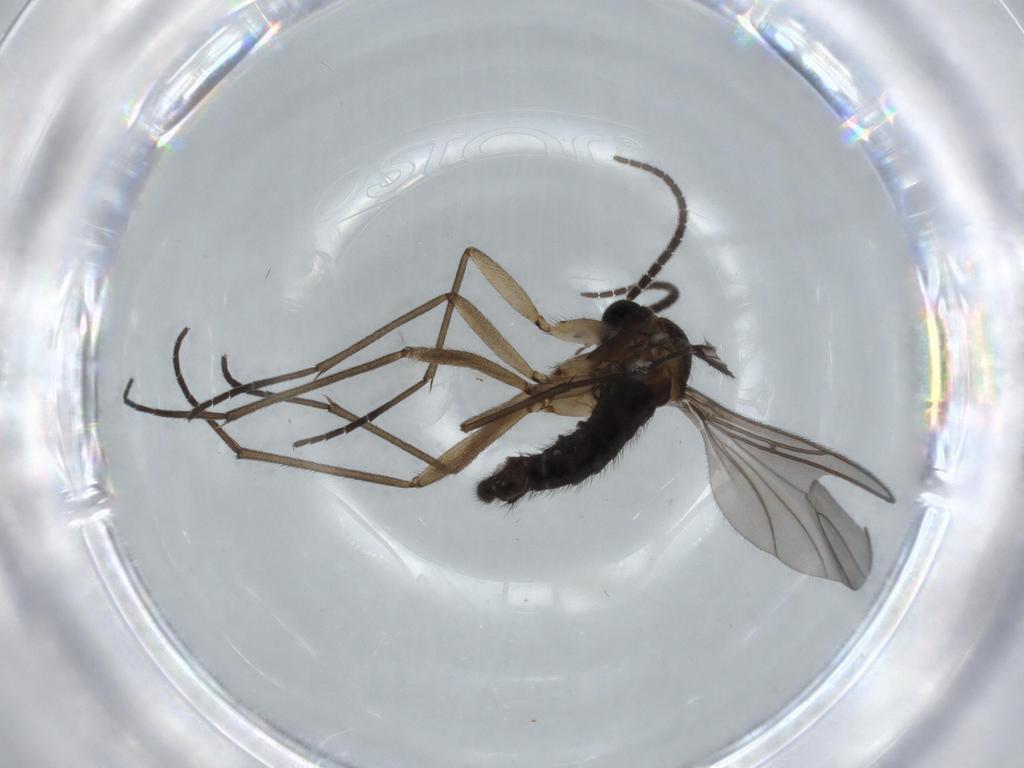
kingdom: Animalia
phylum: Arthropoda
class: Insecta
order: Diptera
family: Sciaridae
